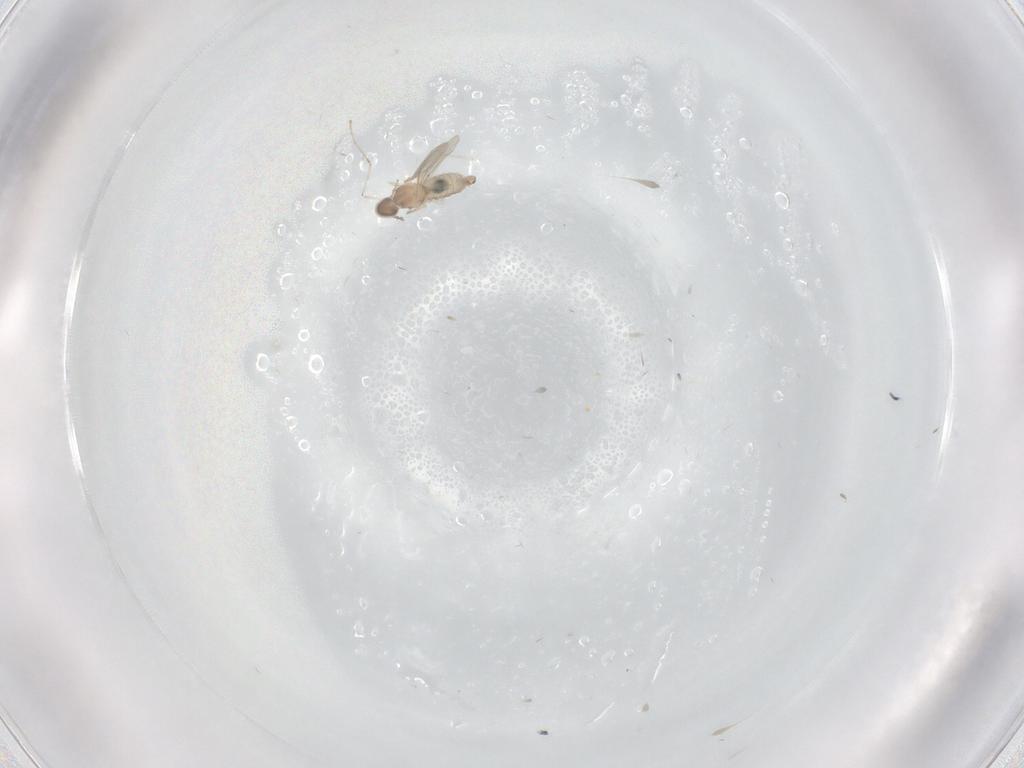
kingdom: Animalia
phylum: Arthropoda
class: Insecta
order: Diptera
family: Cecidomyiidae
